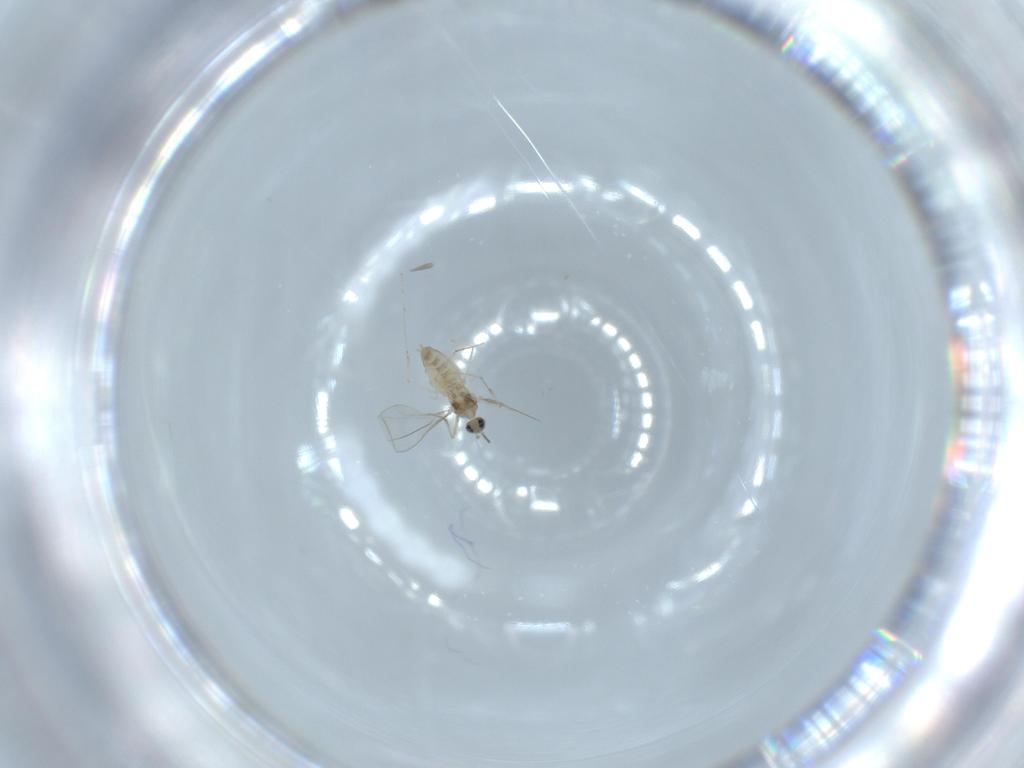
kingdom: Animalia
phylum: Arthropoda
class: Insecta
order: Diptera
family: Cecidomyiidae
